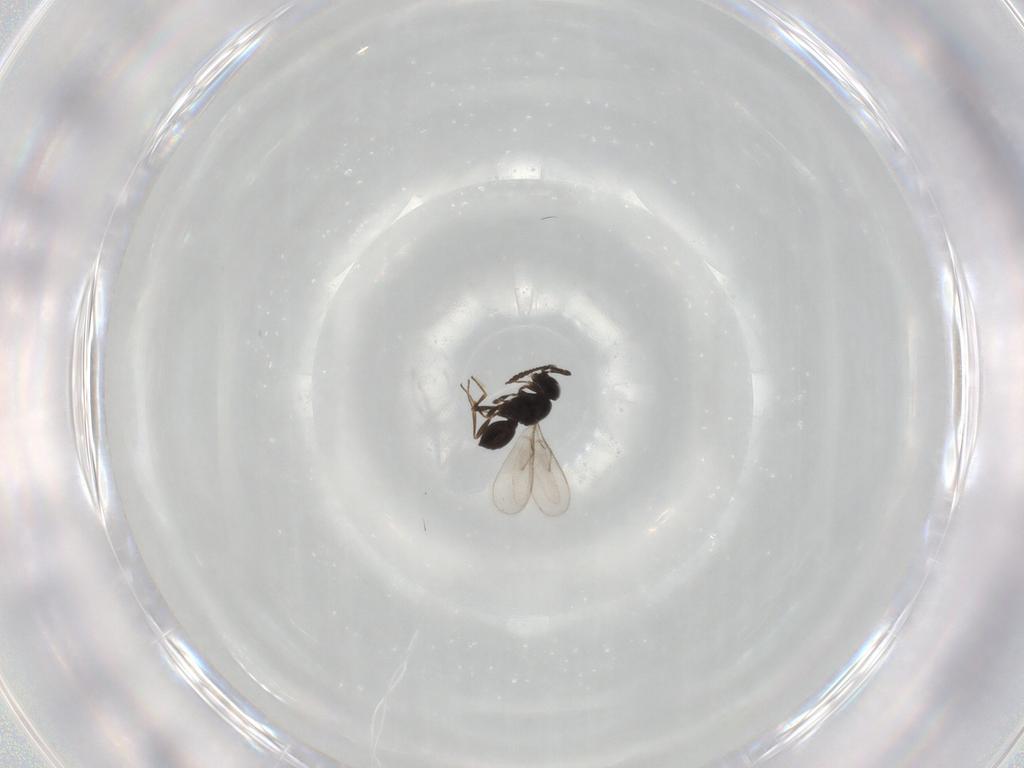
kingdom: Animalia
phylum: Arthropoda
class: Insecta
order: Hymenoptera
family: Scelionidae
